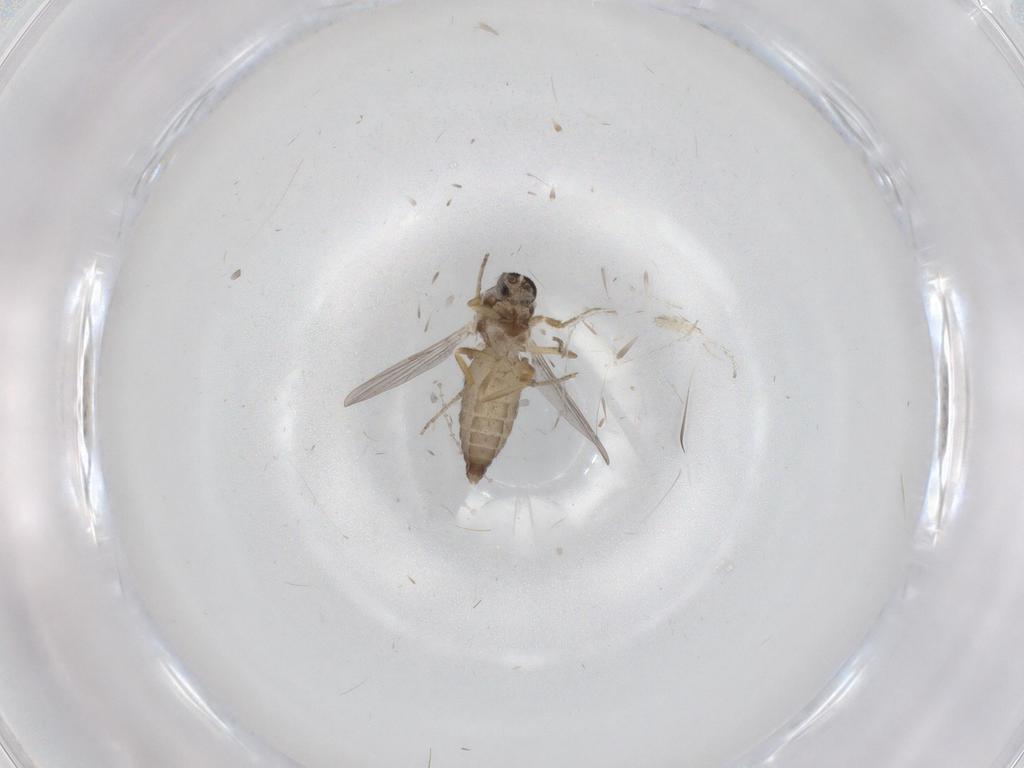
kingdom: Animalia
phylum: Arthropoda
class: Insecta
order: Diptera
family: Ceratopogonidae
